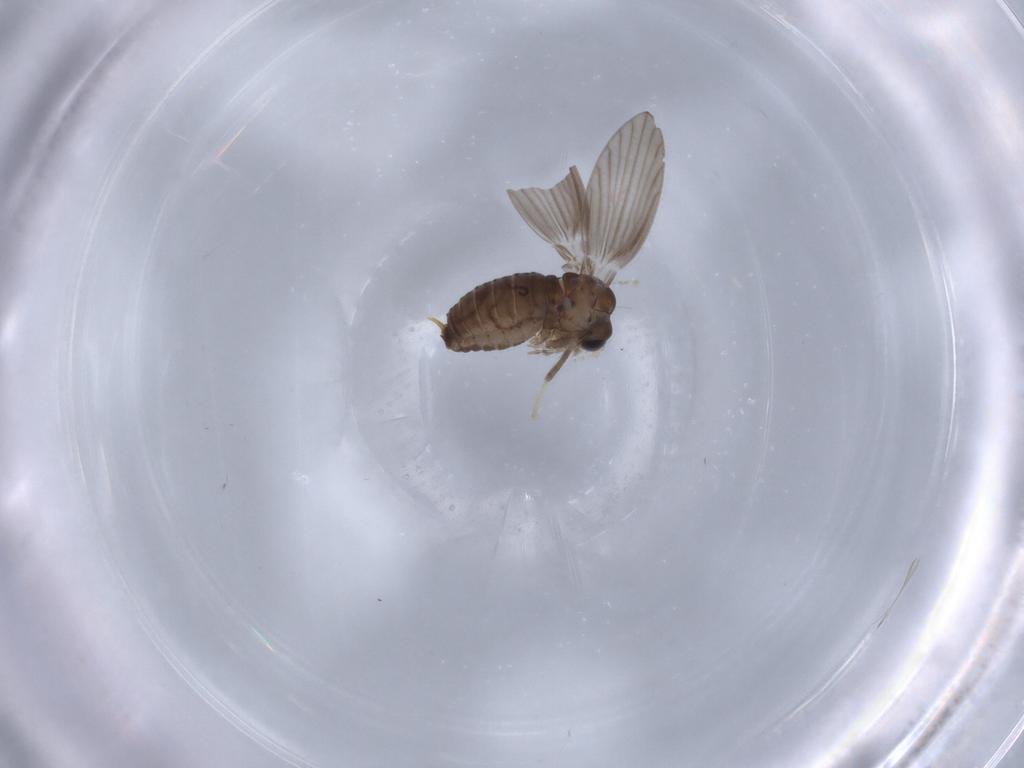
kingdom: Animalia
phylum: Arthropoda
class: Insecta
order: Diptera
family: Psychodidae
